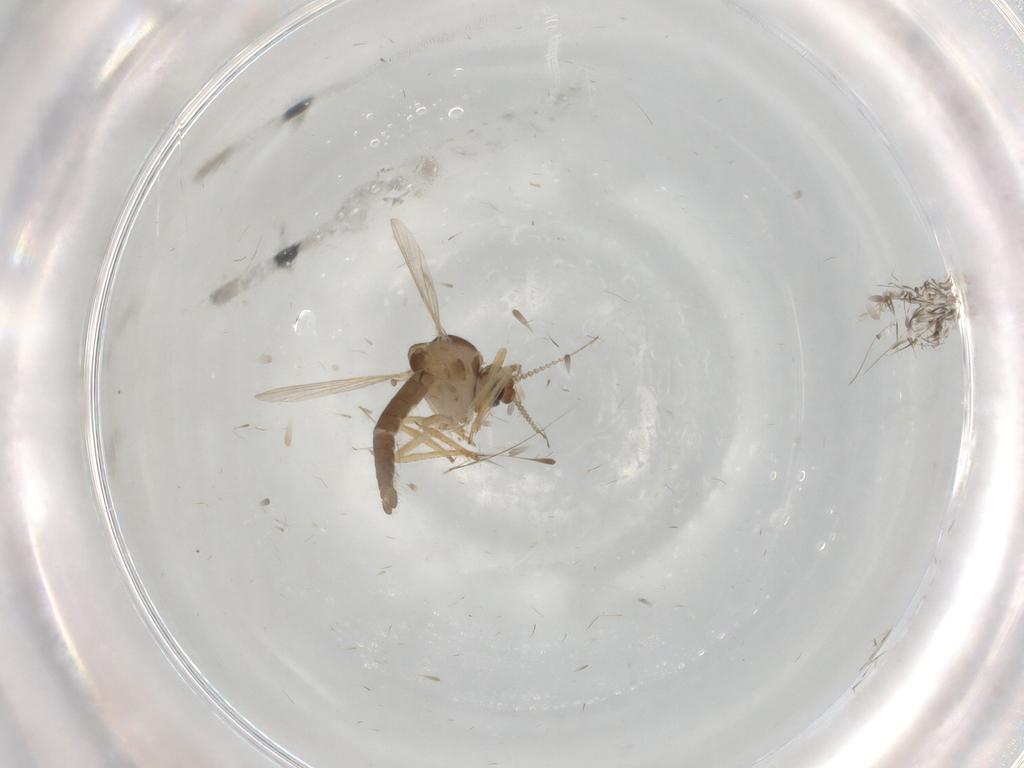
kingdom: Animalia
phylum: Arthropoda
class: Insecta
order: Diptera
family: Ceratopogonidae
